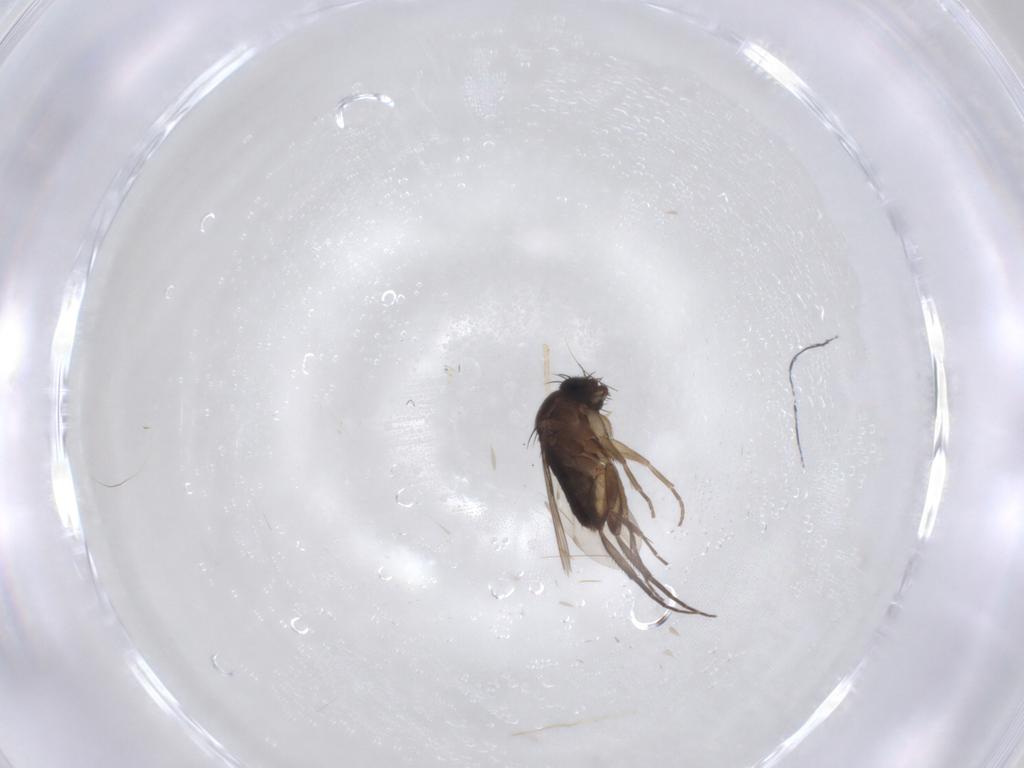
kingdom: Animalia
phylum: Arthropoda
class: Insecta
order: Diptera
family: Phoridae
